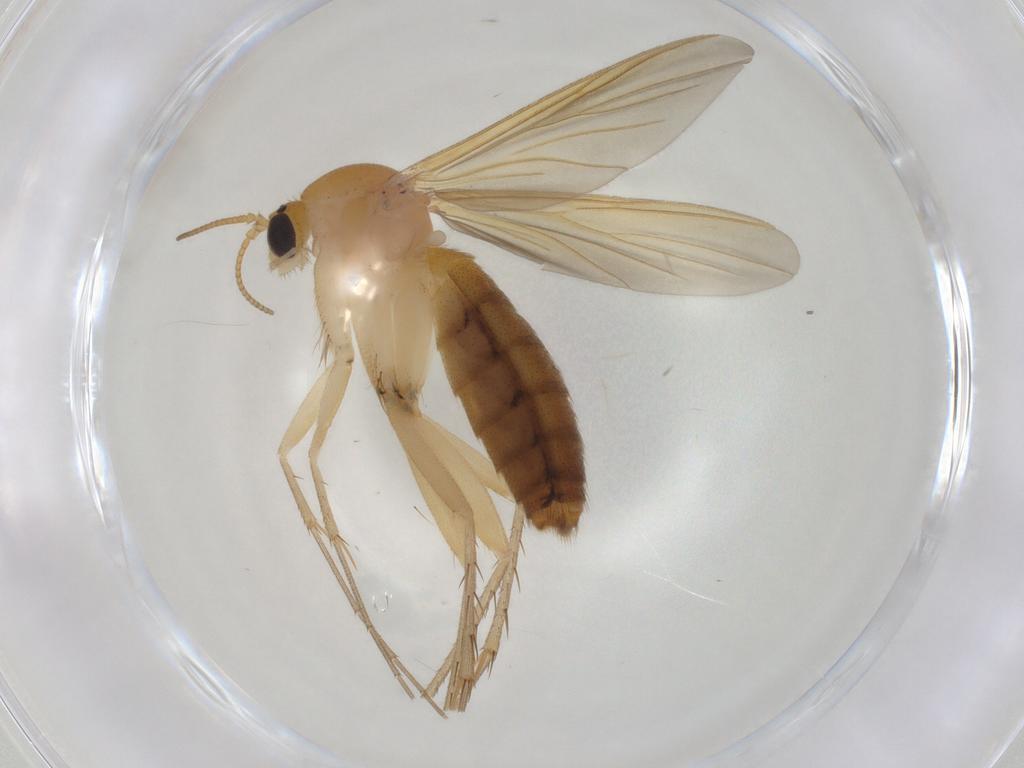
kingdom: Animalia
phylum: Arthropoda
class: Insecta
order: Diptera
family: Mycetophilidae
